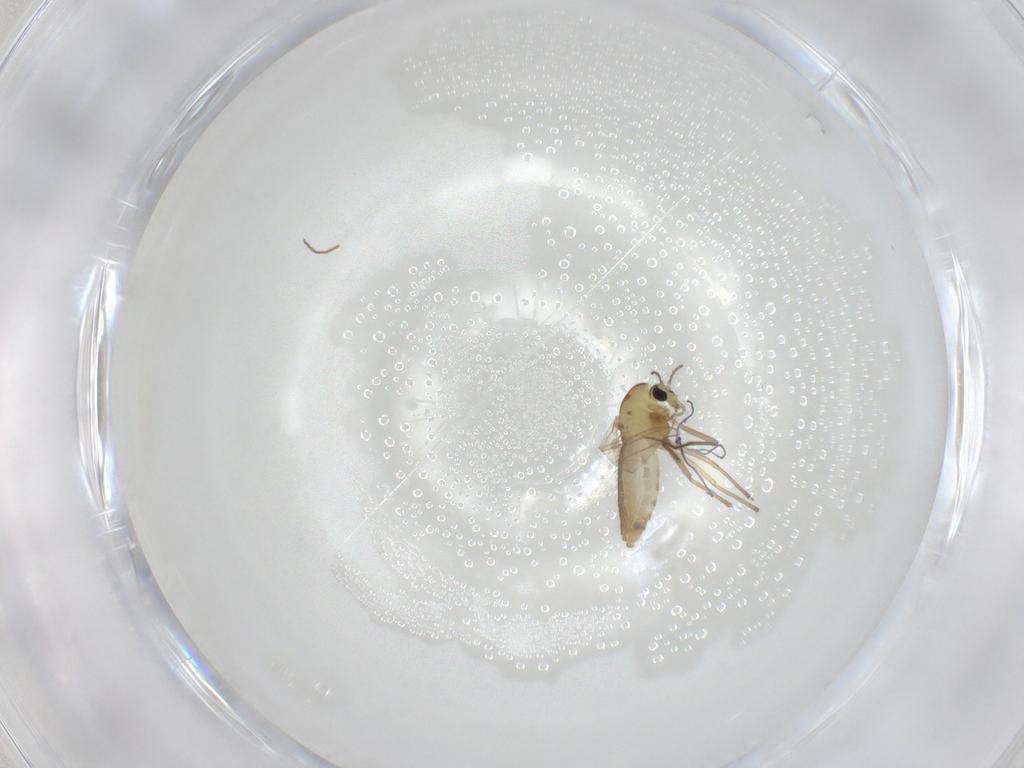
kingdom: Animalia
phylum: Arthropoda
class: Insecta
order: Diptera
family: Chironomidae
